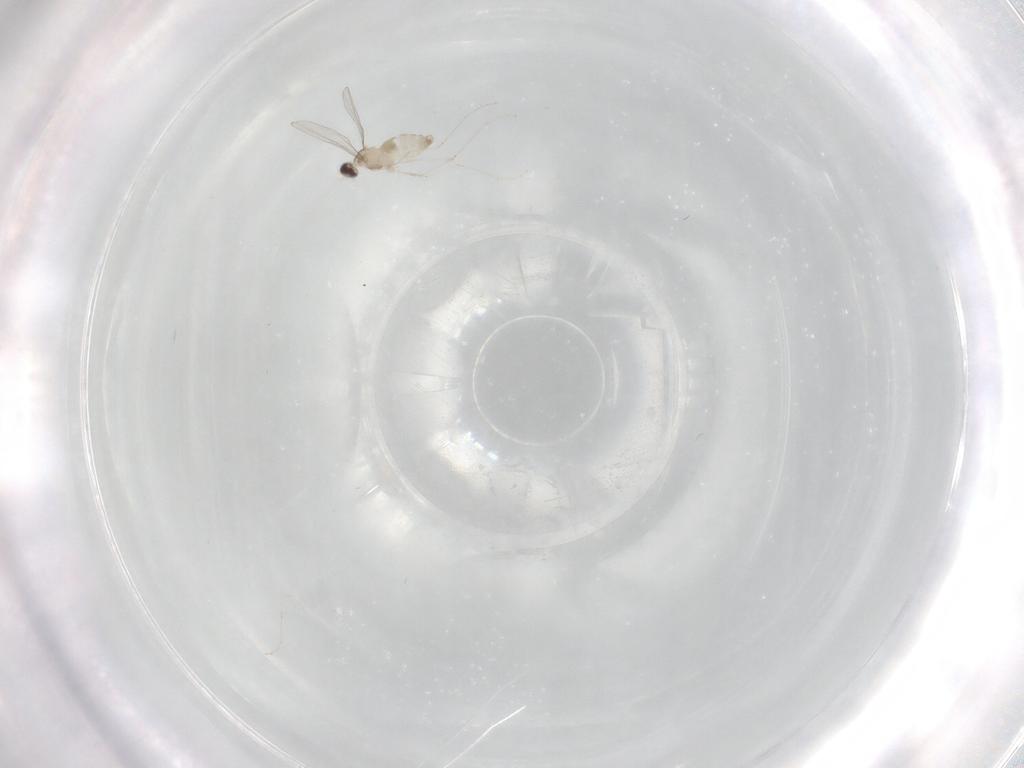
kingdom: Animalia
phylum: Arthropoda
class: Insecta
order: Diptera
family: Cecidomyiidae
